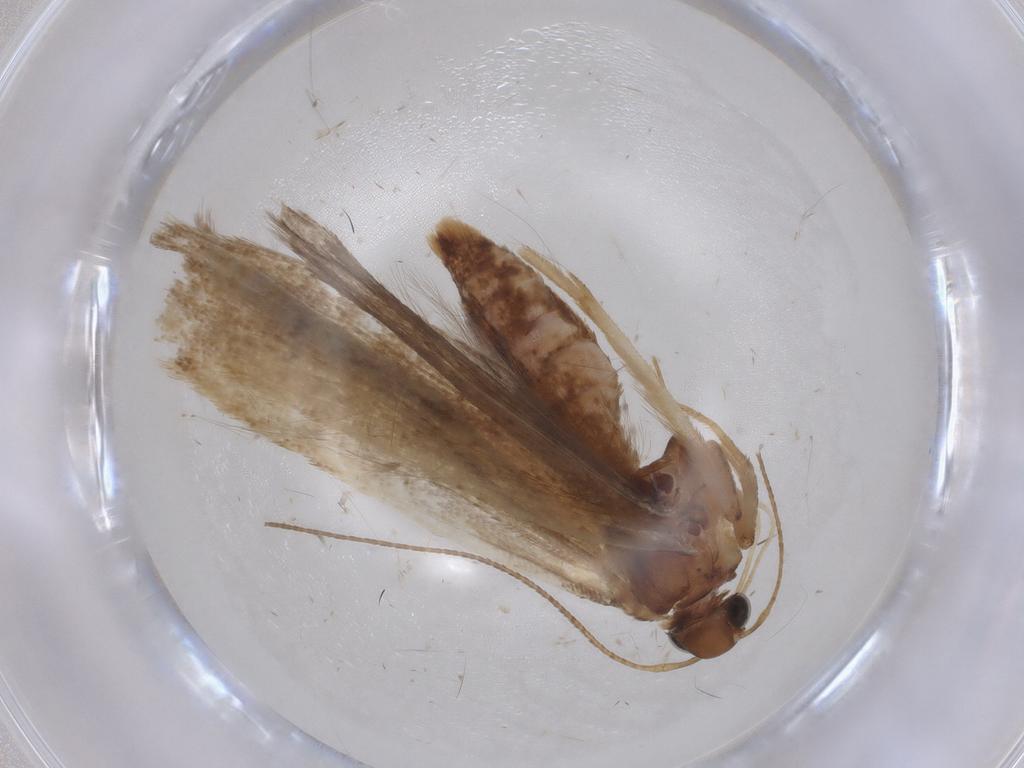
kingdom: Animalia
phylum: Arthropoda
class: Insecta
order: Lepidoptera
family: Gelechiidae
